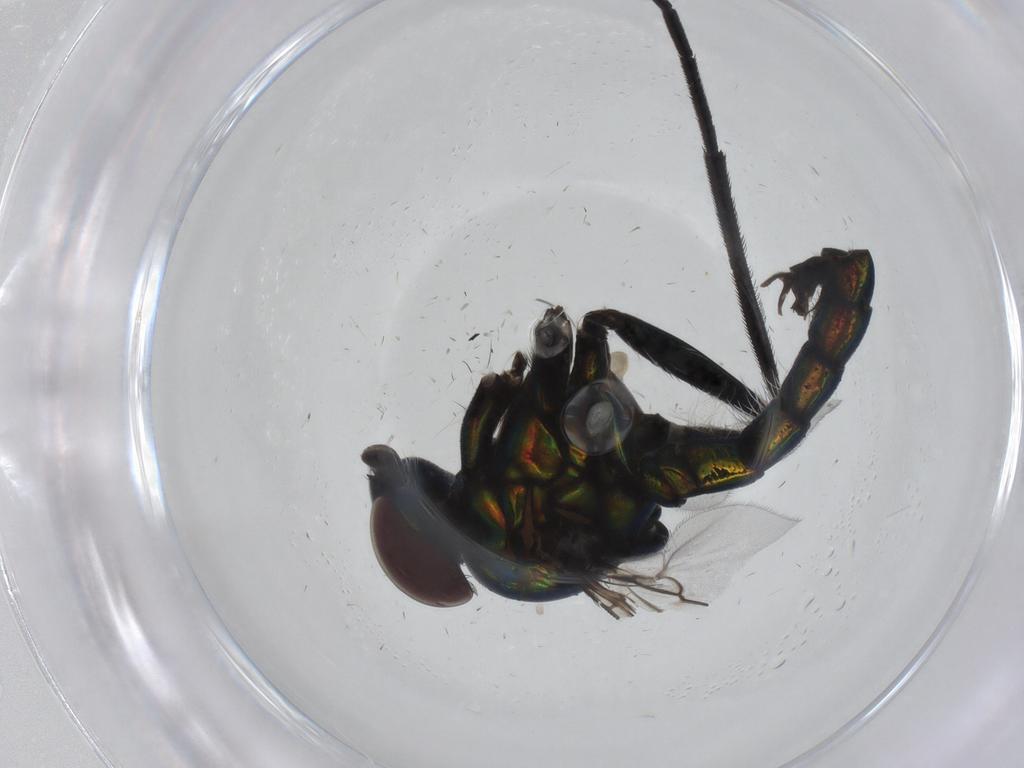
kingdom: Animalia
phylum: Arthropoda
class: Insecta
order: Diptera
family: Dolichopodidae
